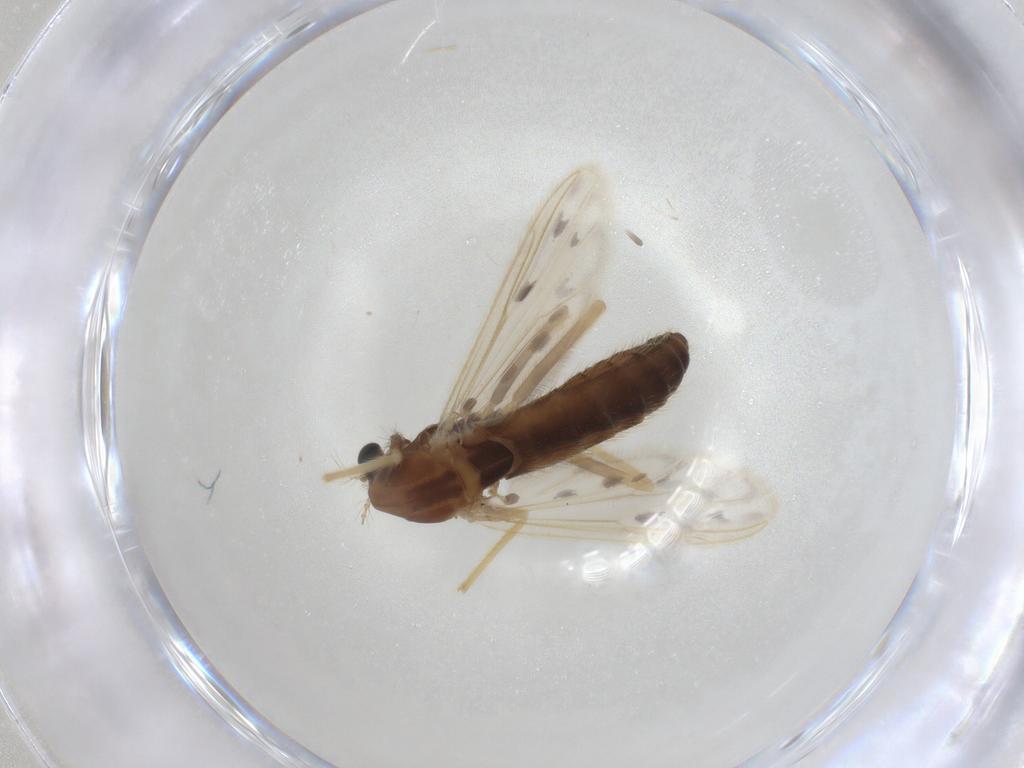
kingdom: Animalia
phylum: Arthropoda
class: Insecta
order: Diptera
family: Chironomidae
